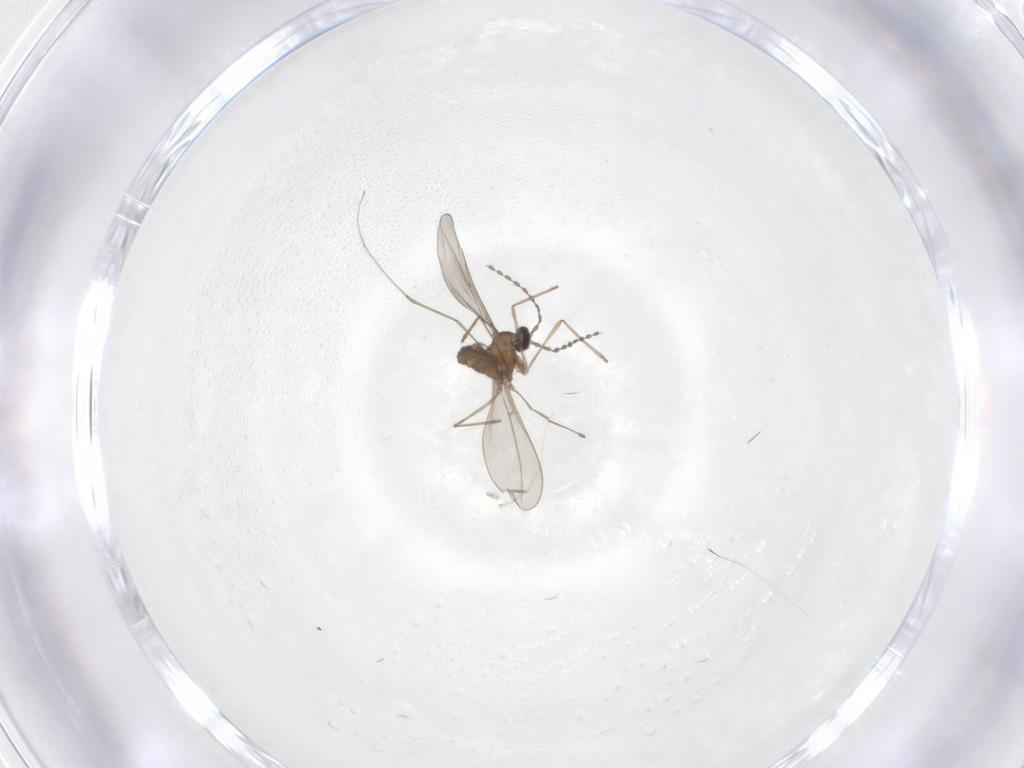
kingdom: Animalia
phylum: Arthropoda
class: Insecta
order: Diptera
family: Cecidomyiidae
